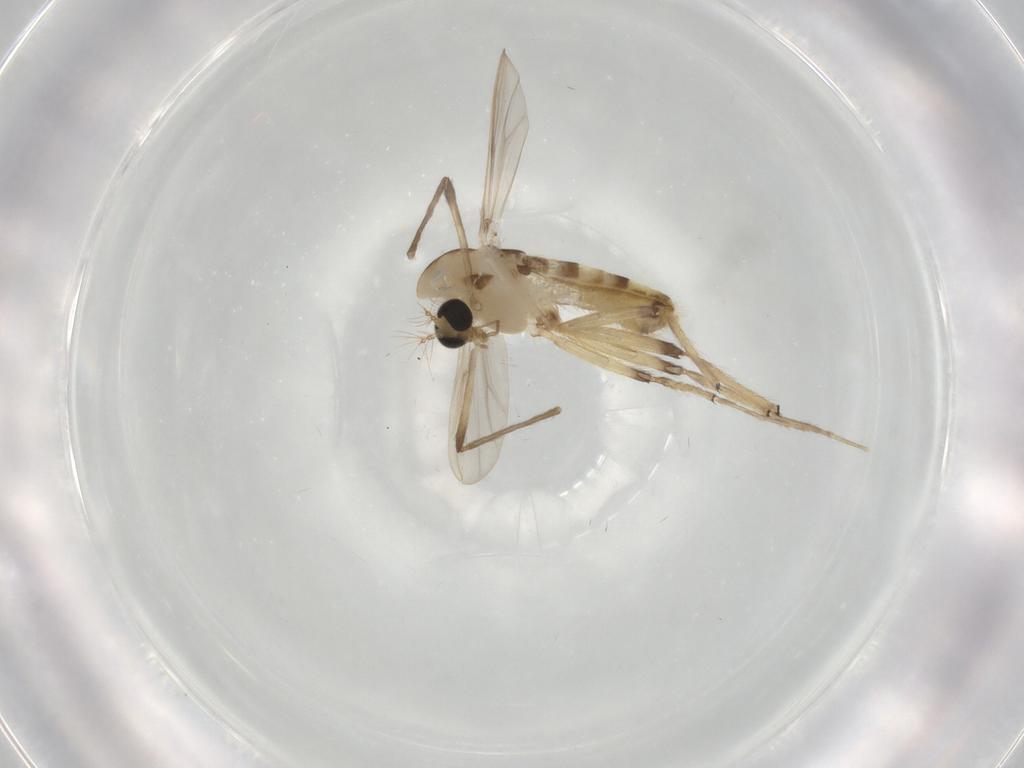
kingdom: Animalia
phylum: Arthropoda
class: Insecta
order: Diptera
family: Chironomidae
